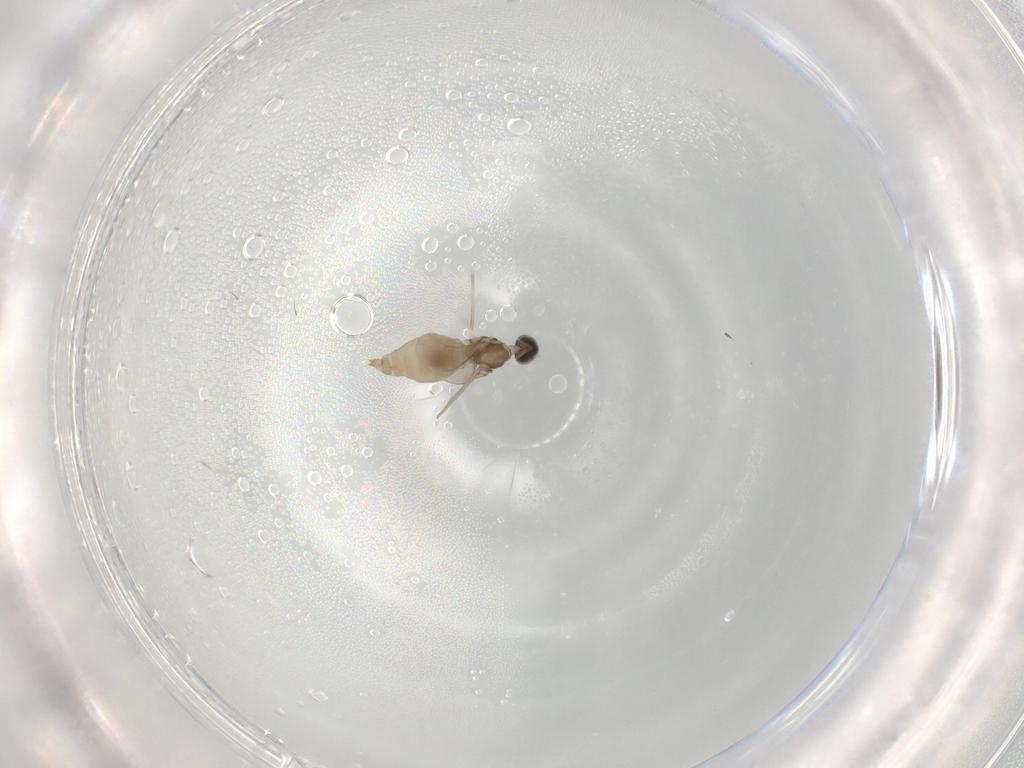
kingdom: Animalia
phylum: Arthropoda
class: Insecta
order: Diptera
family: Cecidomyiidae
